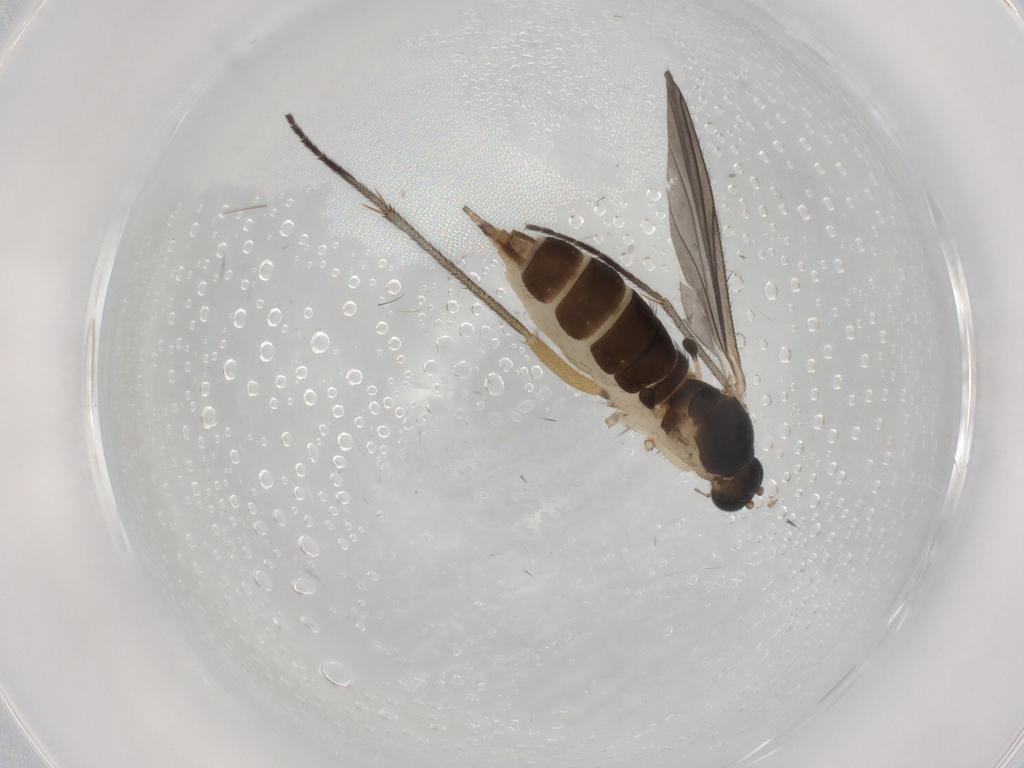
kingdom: Animalia
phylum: Arthropoda
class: Insecta
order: Diptera
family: Sciaridae
